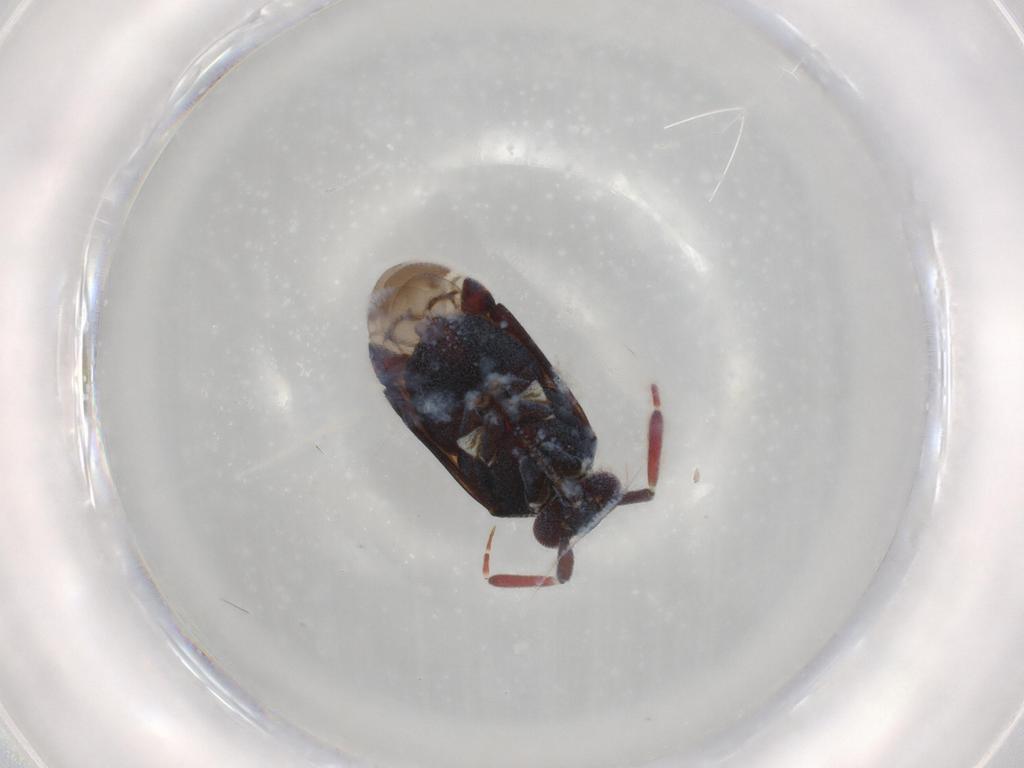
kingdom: Animalia
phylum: Arthropoda
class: Insecta
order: Hemiptera
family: Miridae
